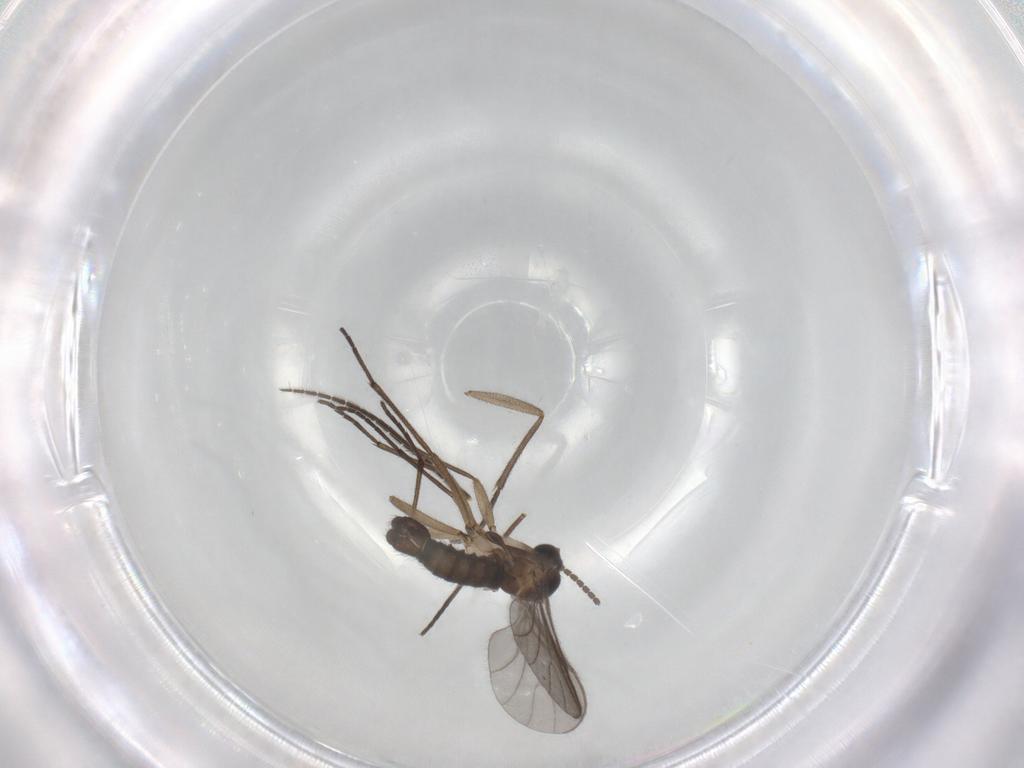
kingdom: Animalia
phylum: Arthropoda
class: Insecta
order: Diptera
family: Sciaridae
